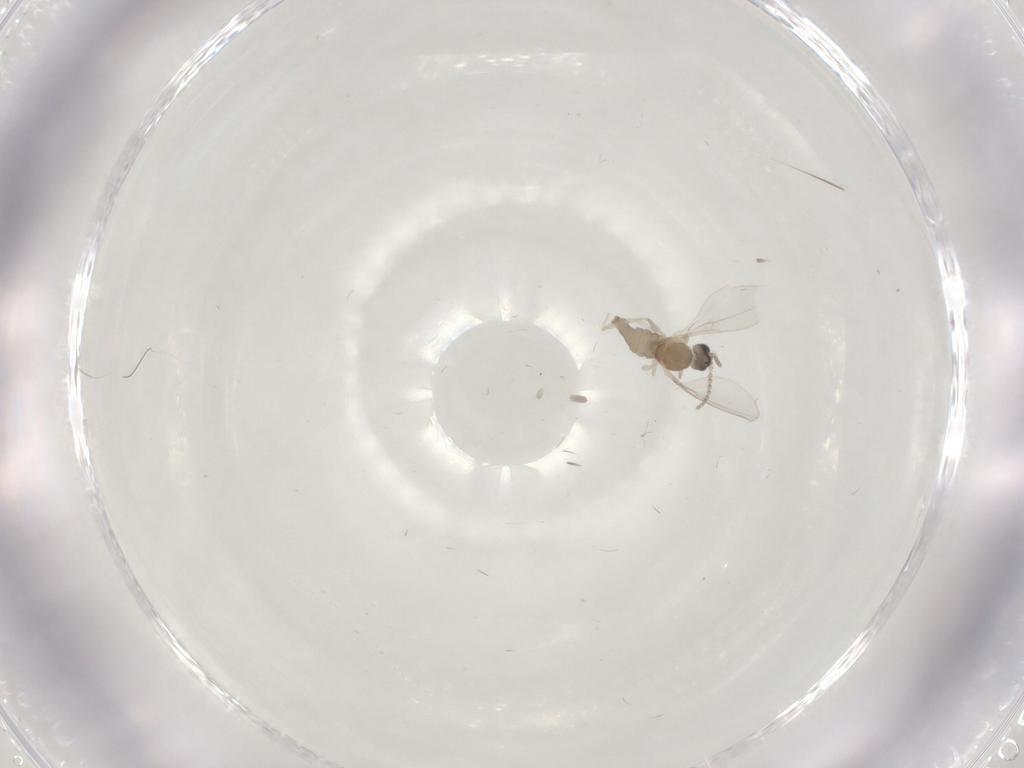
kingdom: Animalia
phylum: Arthropoda
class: Insecta
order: Diptera
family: Cecidomyiidae
